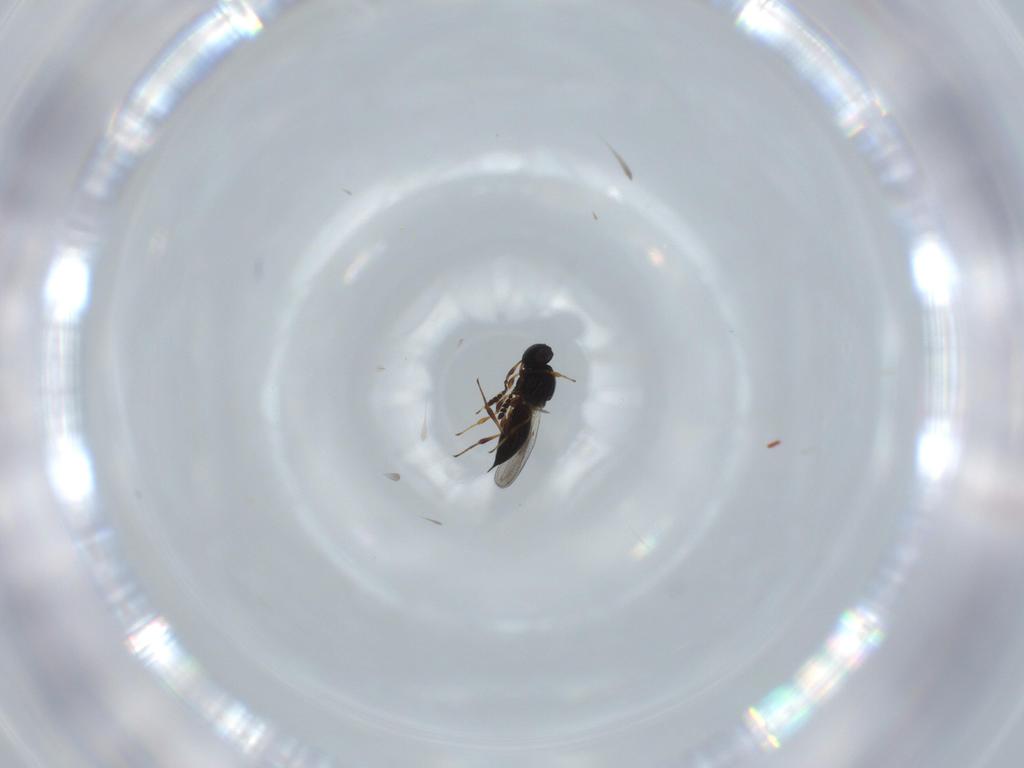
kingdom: Animalia
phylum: Arthropoda
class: Insecta
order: Hymenoptera
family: Platygastridae
